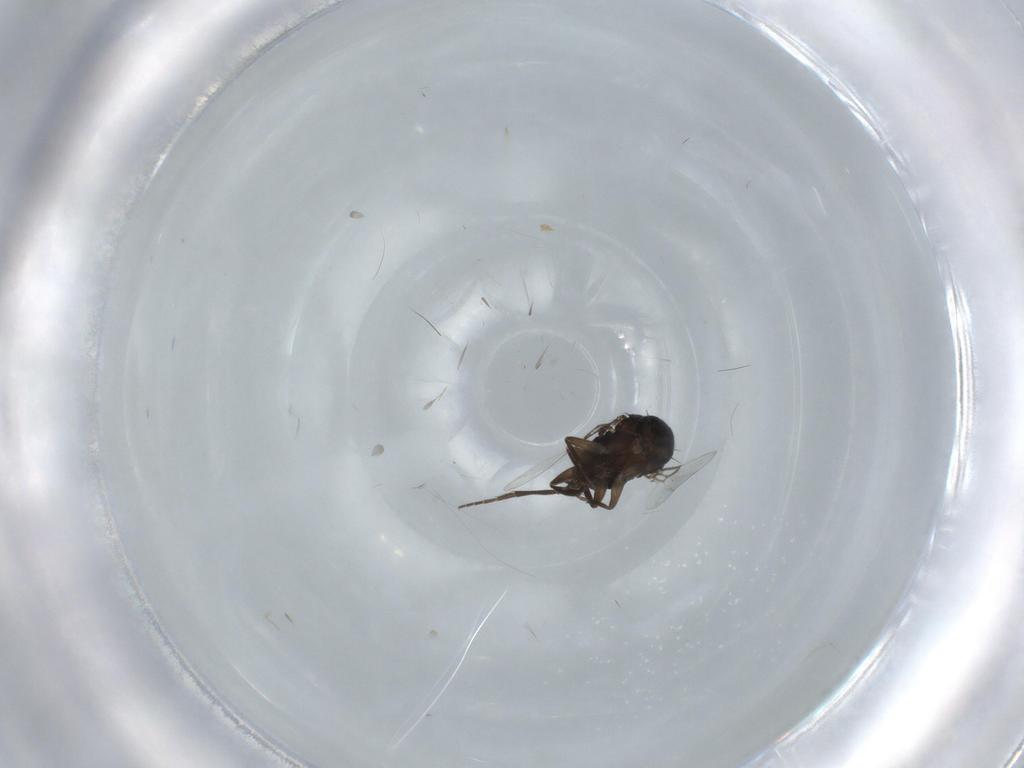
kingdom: Animalia
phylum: Arthropoda
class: Insecta
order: Diptera
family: Phoridae
